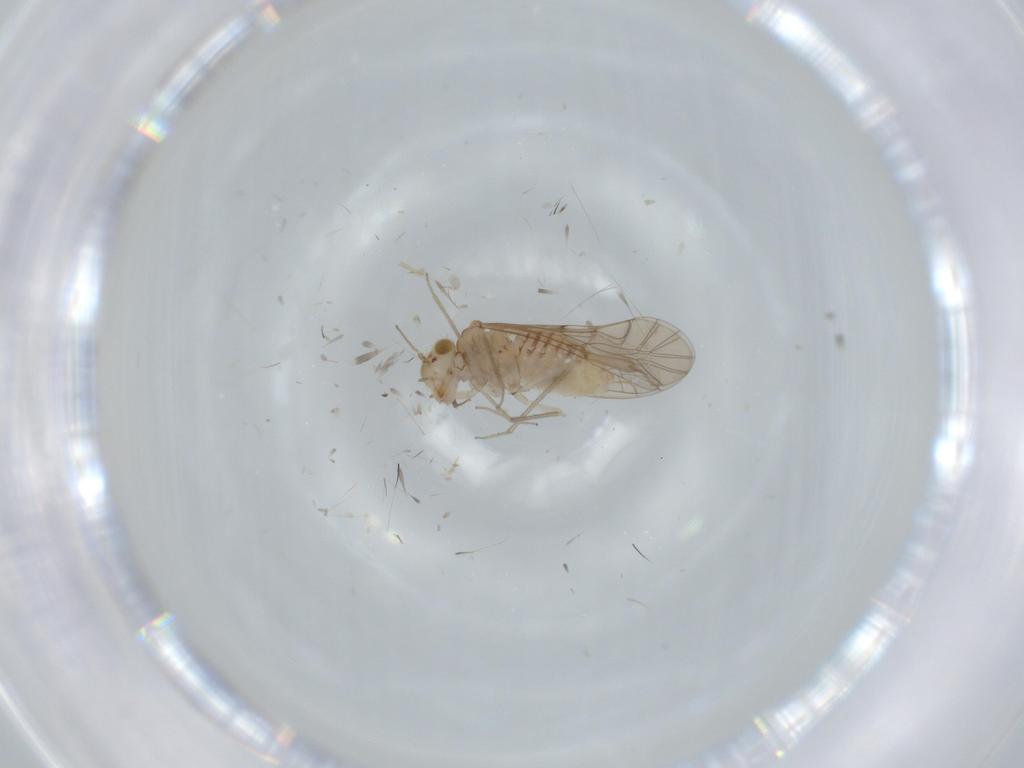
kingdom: Animalia
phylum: Arthropoda
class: Insecta
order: Psocodea
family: Lachesillidae
